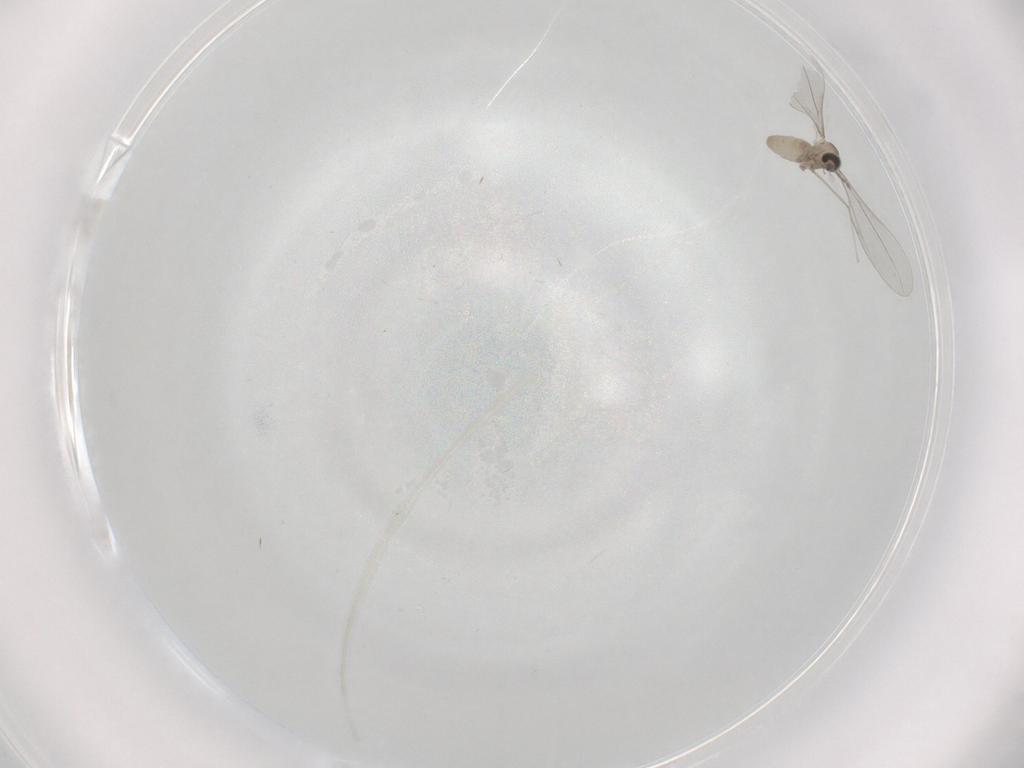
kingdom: Animalia
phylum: Arthropoda
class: Insecta
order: Diptera
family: Cecidomyiidae
